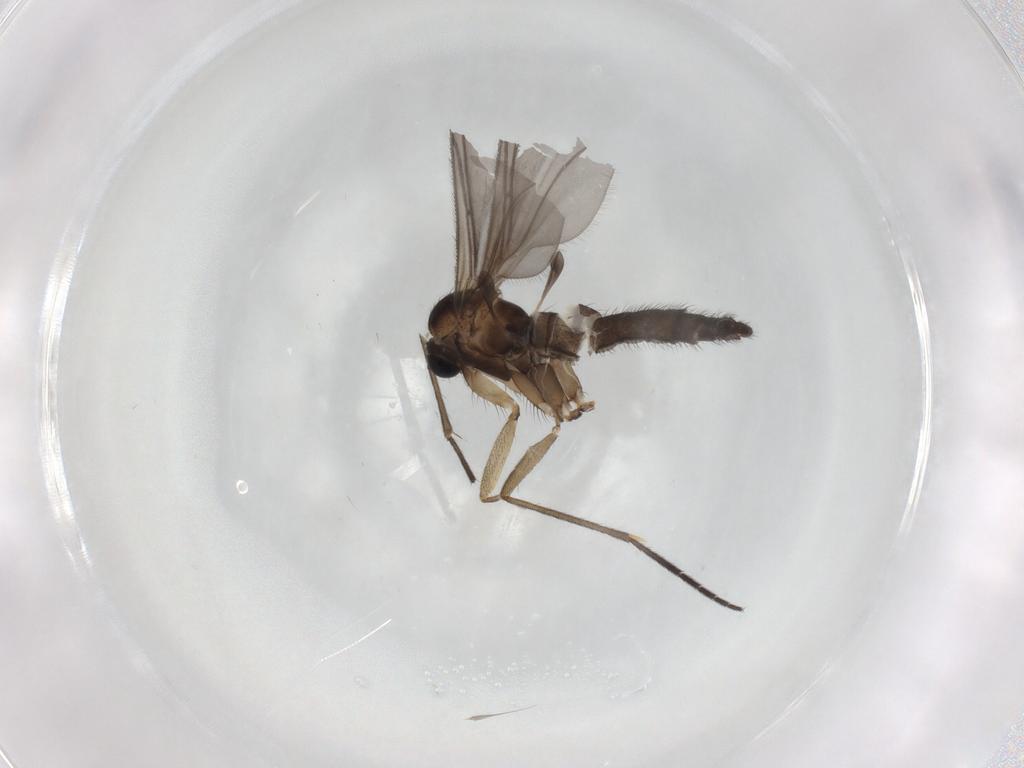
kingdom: Animalia
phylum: Arthropoda
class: Insecta
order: Diptera
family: Sciaridae
